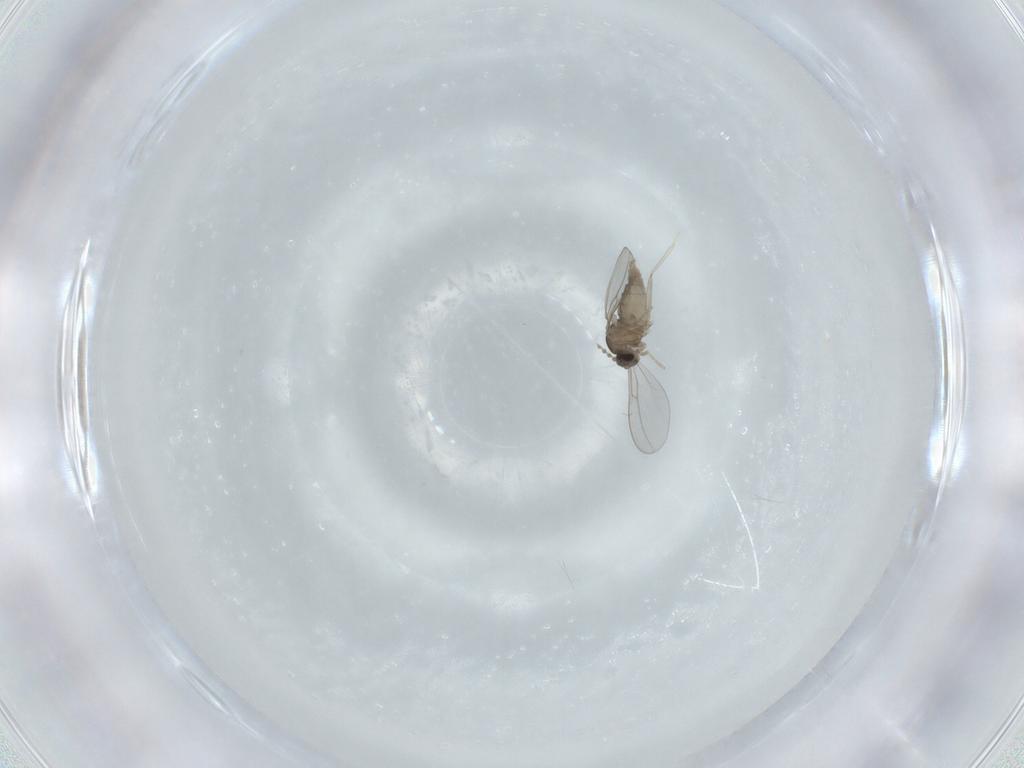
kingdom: Animalia
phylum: Arthropoda
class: Insecta
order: Diptera
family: Cecidomyiidae
